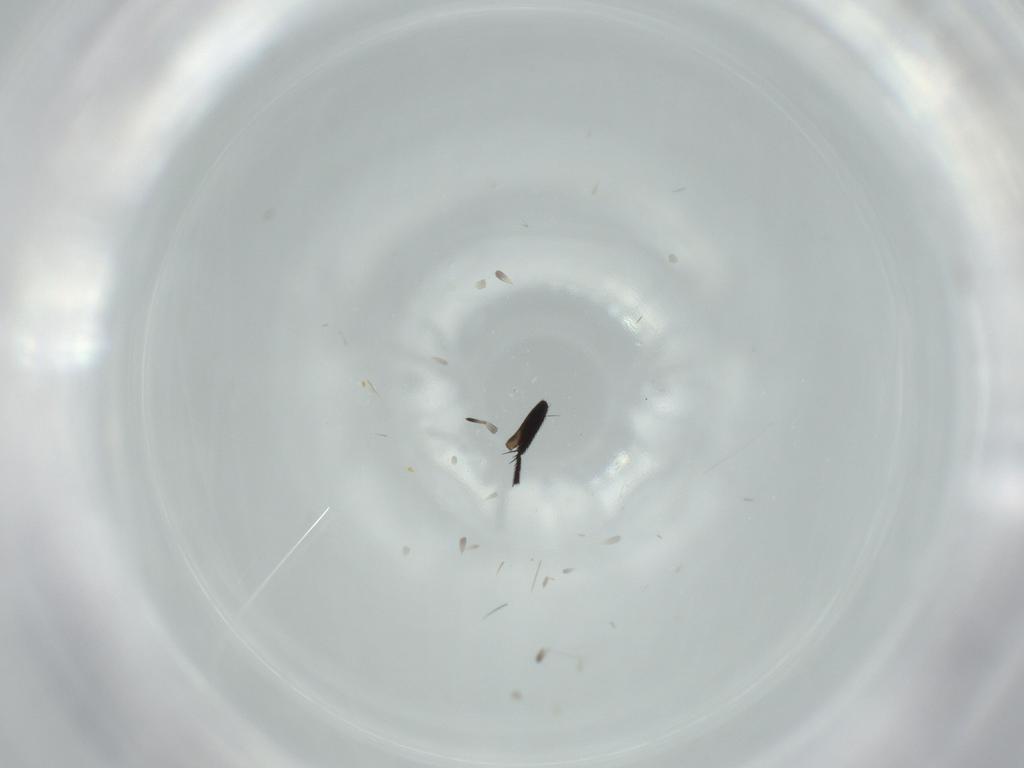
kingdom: Animalia
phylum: Arthropoda
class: Insecta
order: Diptera
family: Milichiidae
